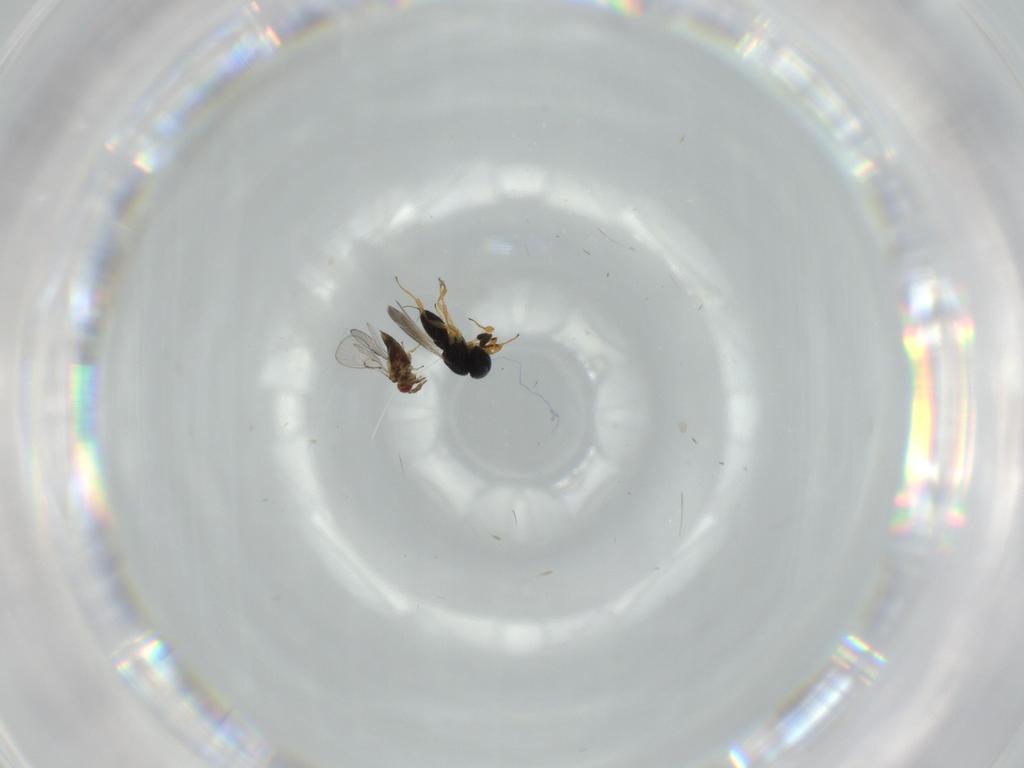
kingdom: Animalia
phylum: Arthropoda
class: Insecta
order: Hymenoptera
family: Scelionidae
